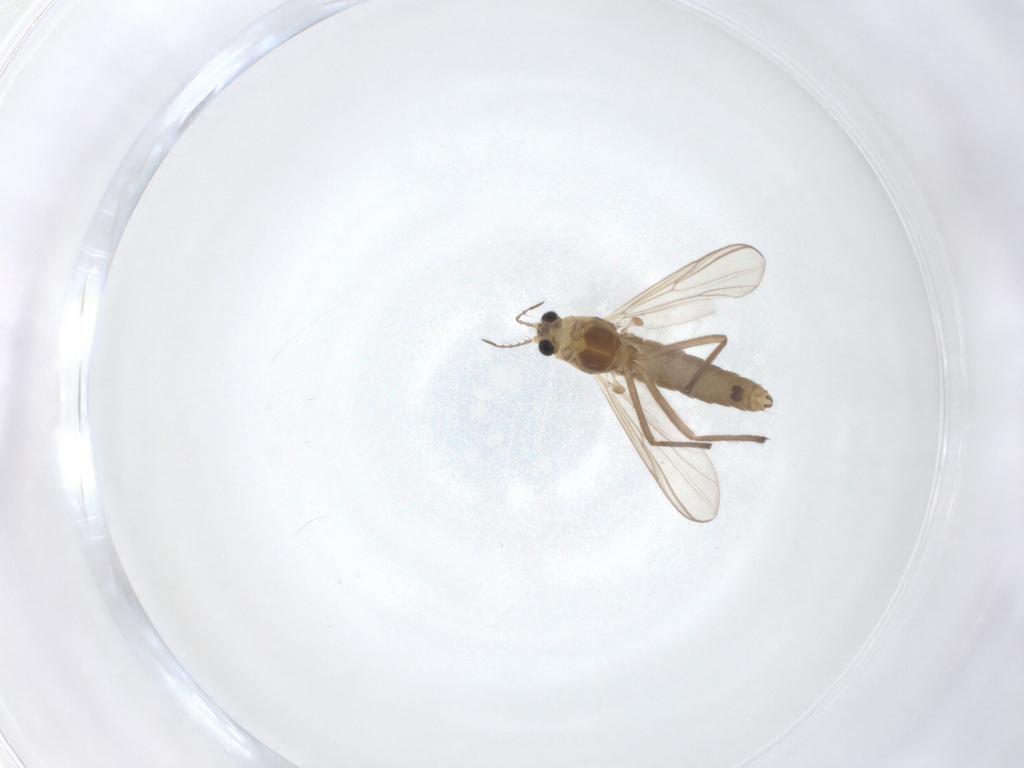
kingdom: Animalia
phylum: Arthropoda
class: Insecta
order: Diptera
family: Chironomidae
